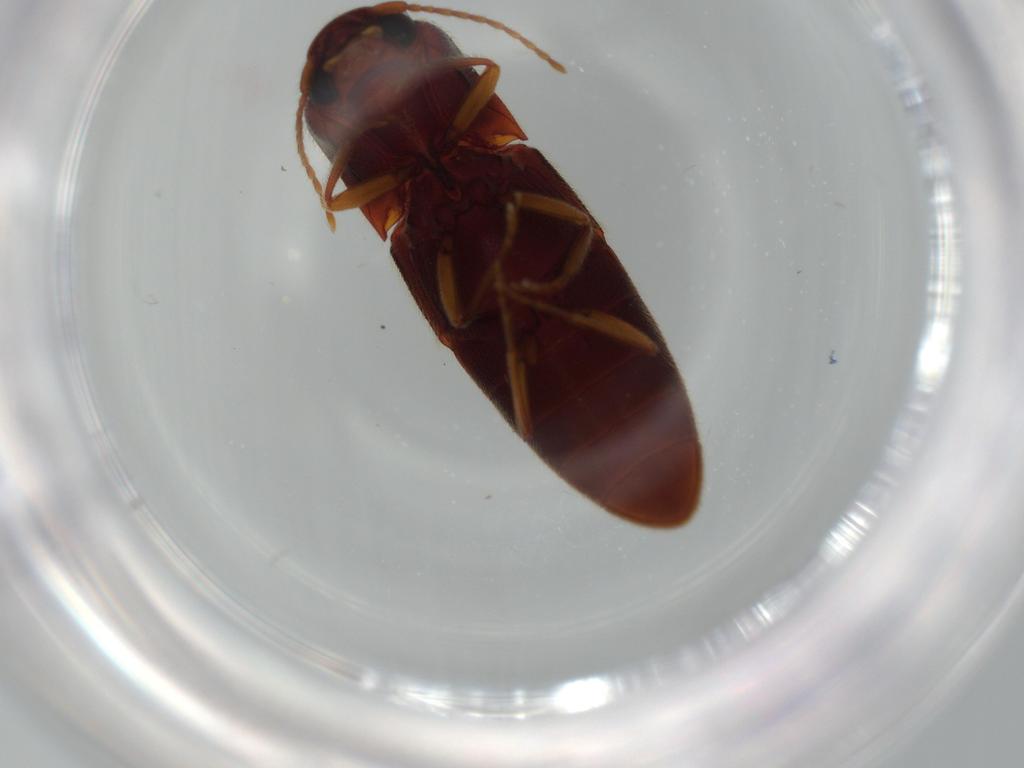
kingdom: Animalia
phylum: Arthropoda
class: Insecta
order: Coleoptera
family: Elateridae
